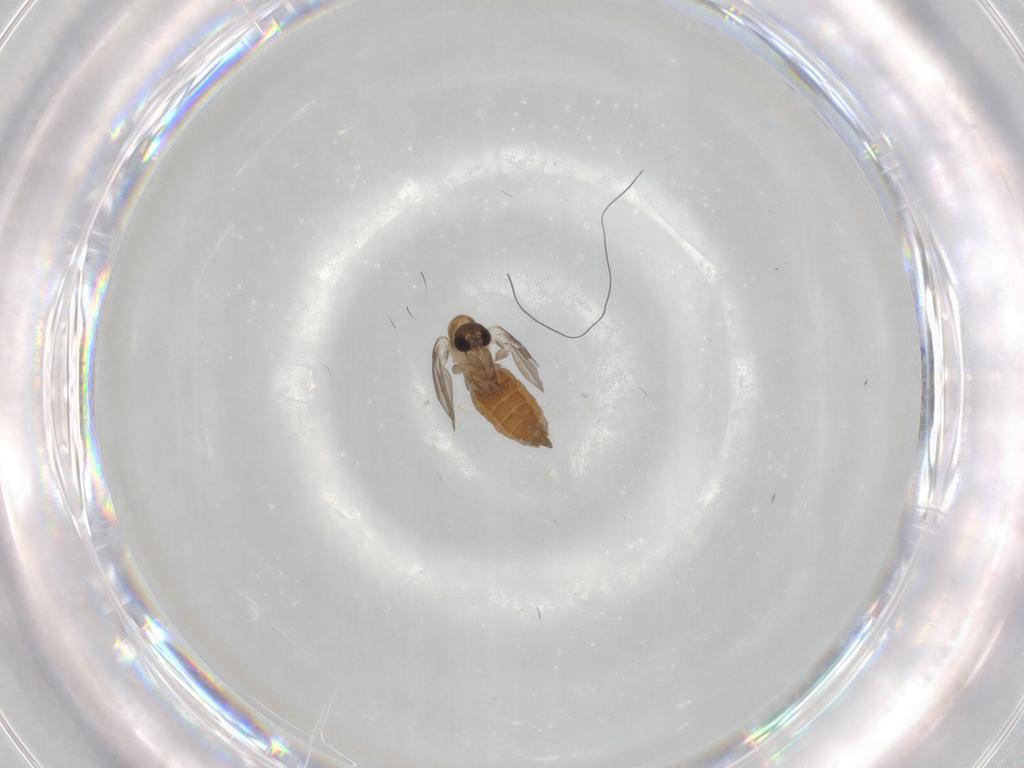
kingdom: Animalia
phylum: Arthropoda
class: Insecta
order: Diptera
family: Psychodidae
